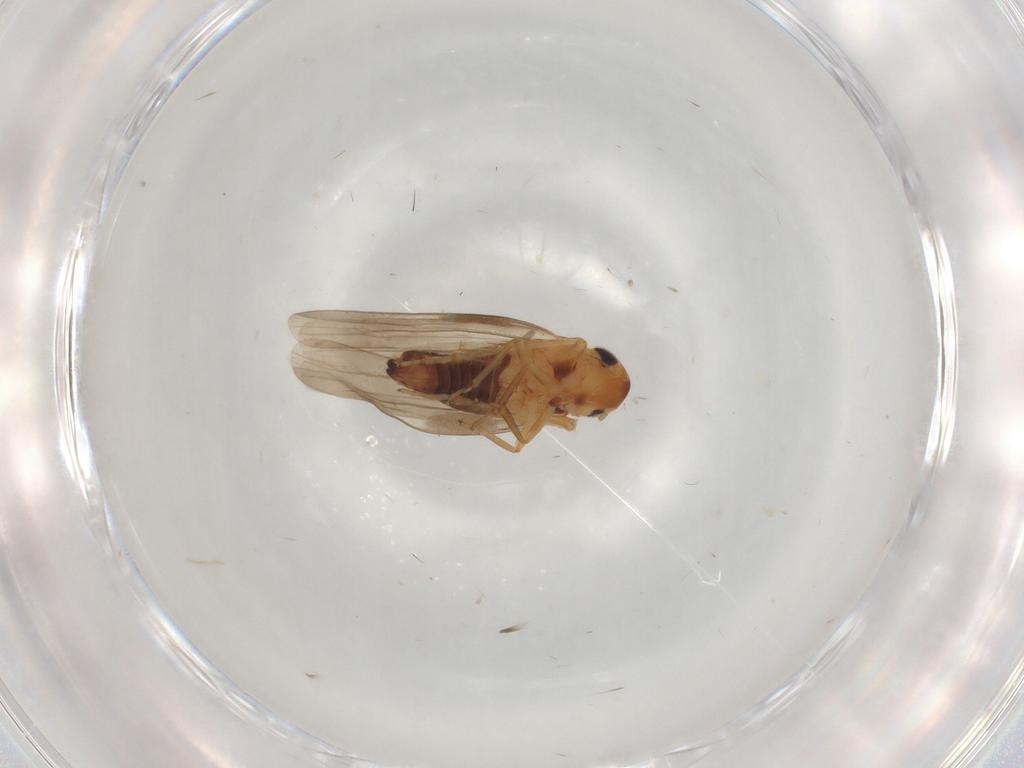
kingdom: Animalia
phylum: Arthropoda
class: Insecta
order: Hemiptera
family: Cicadellidae
